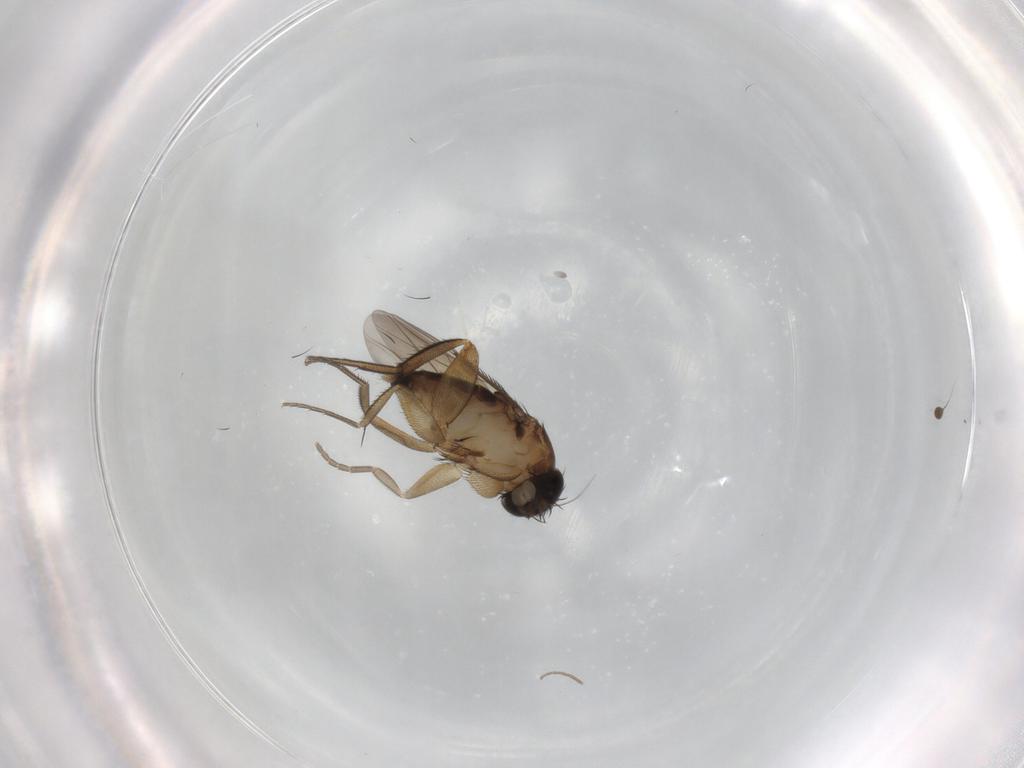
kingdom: Animalia
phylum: Arthropoda
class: Insecta
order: Diptera
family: Phoridae
